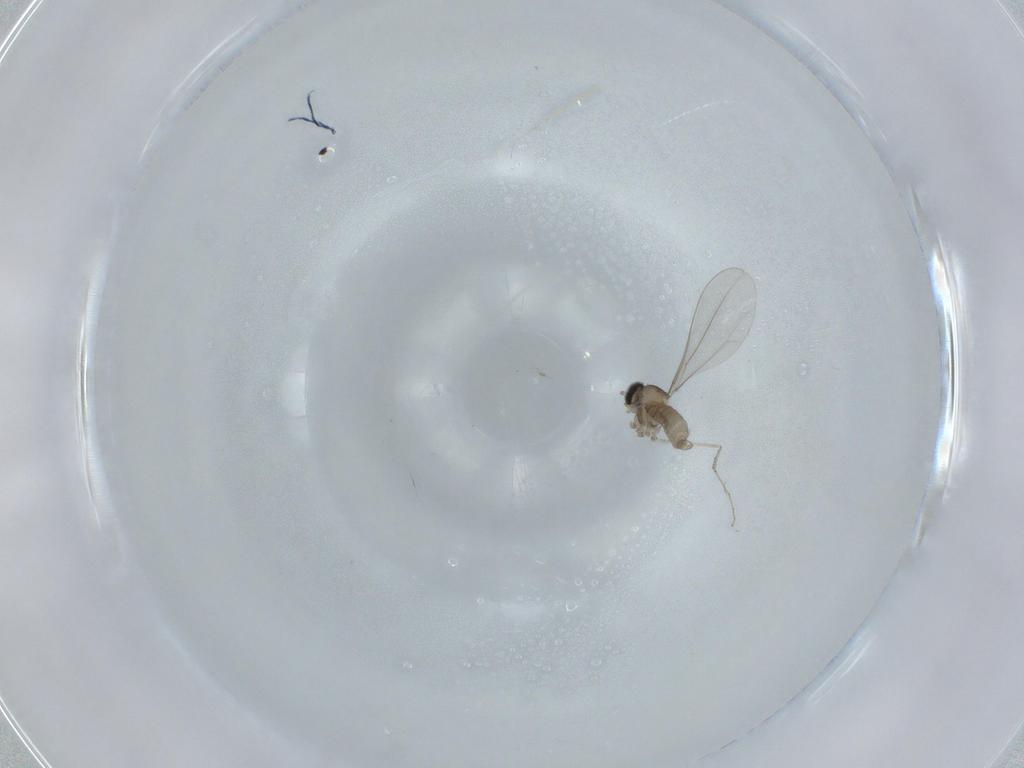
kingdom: Animalia
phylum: Arthropoda
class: Insecta
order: Diptera
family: Cecidomyiidae
